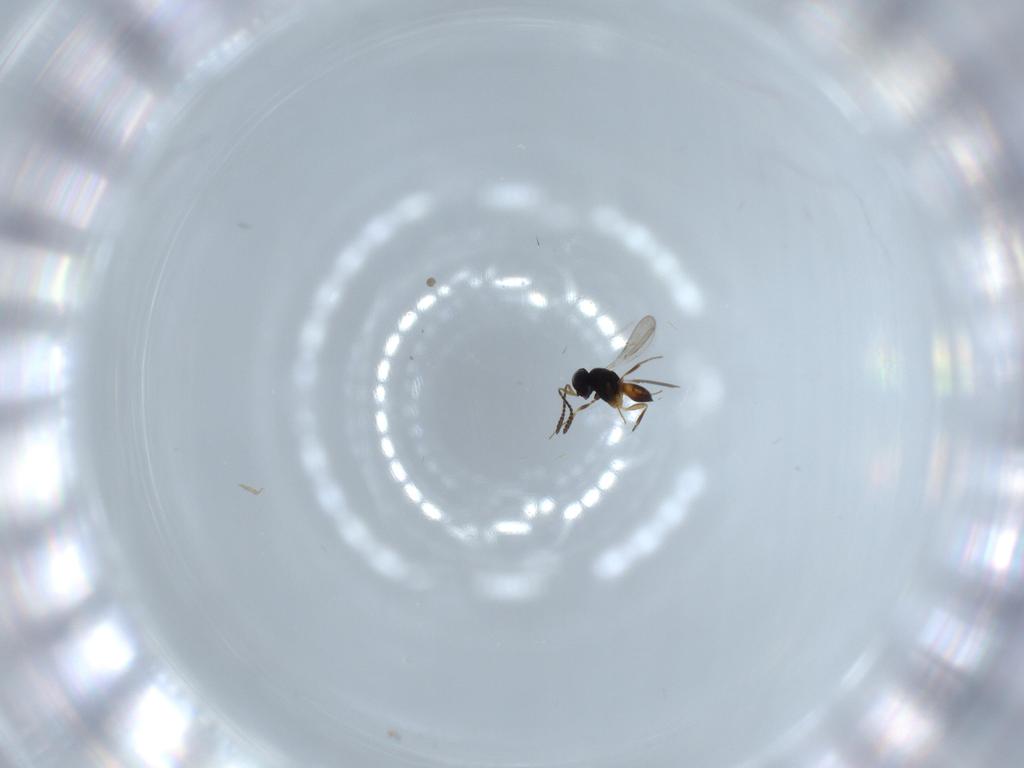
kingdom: Animalia
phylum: Arthropoda
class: Insecta
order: Hymenoptera
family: Scelionidae
